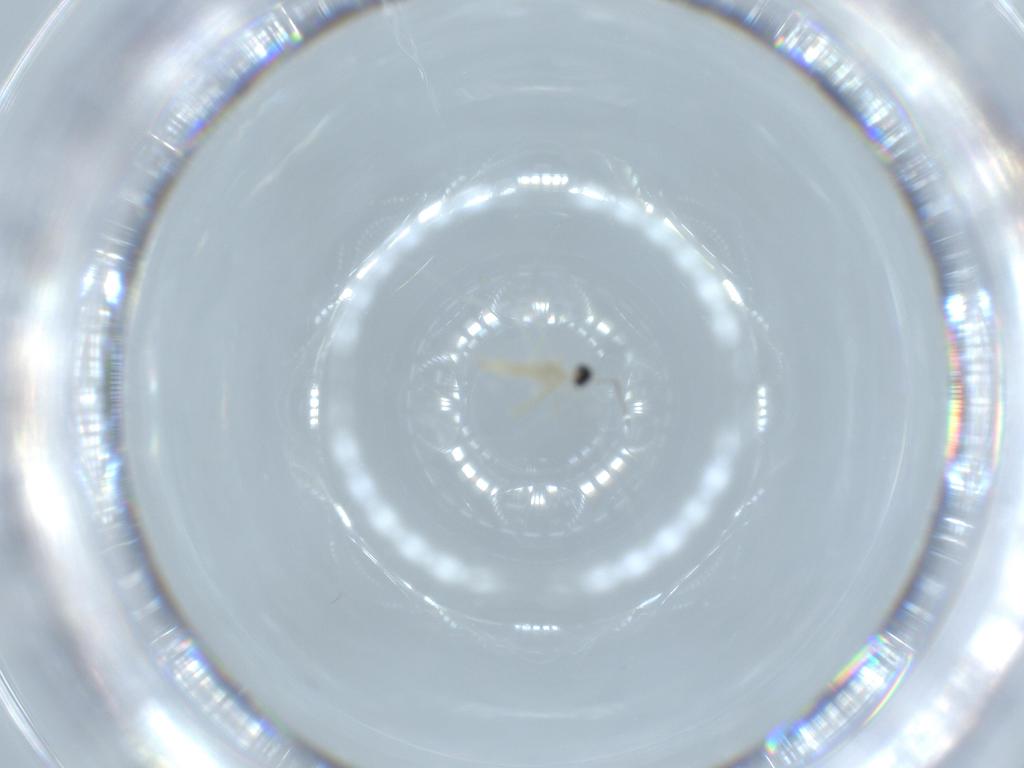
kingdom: Animalia
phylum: Arthropoda
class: Insecta
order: Diptera
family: Cecidomyiidae
